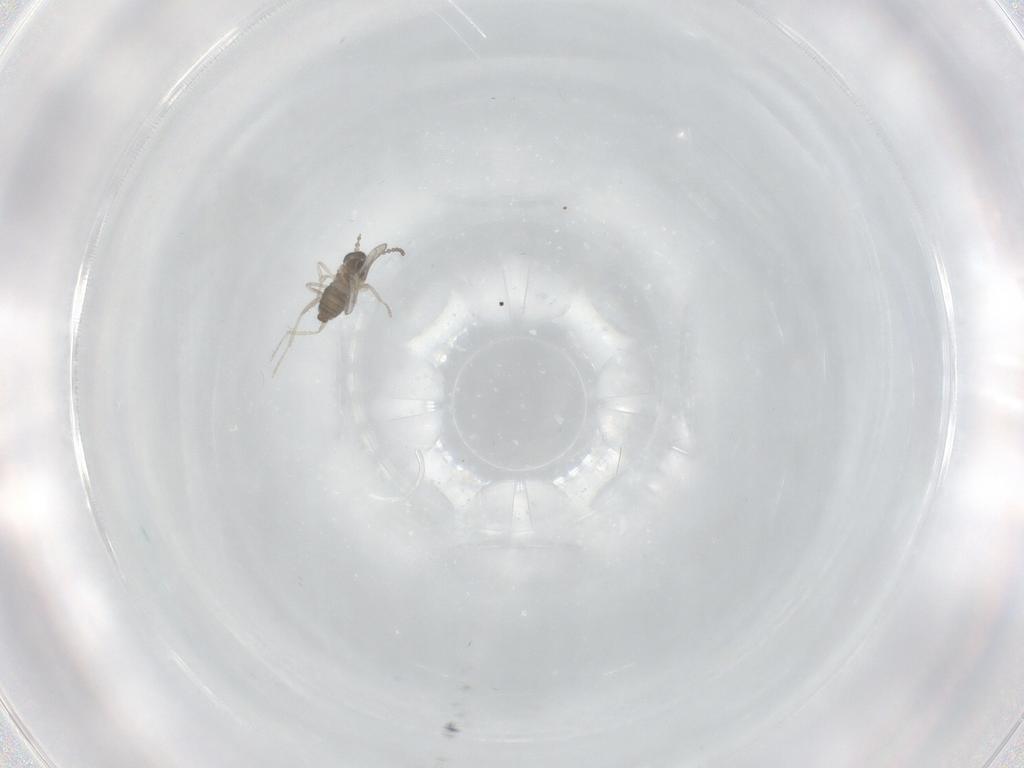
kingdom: Animalia
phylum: Arthropoda
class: Insecta
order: Diptera
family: Cecidomyiidae
